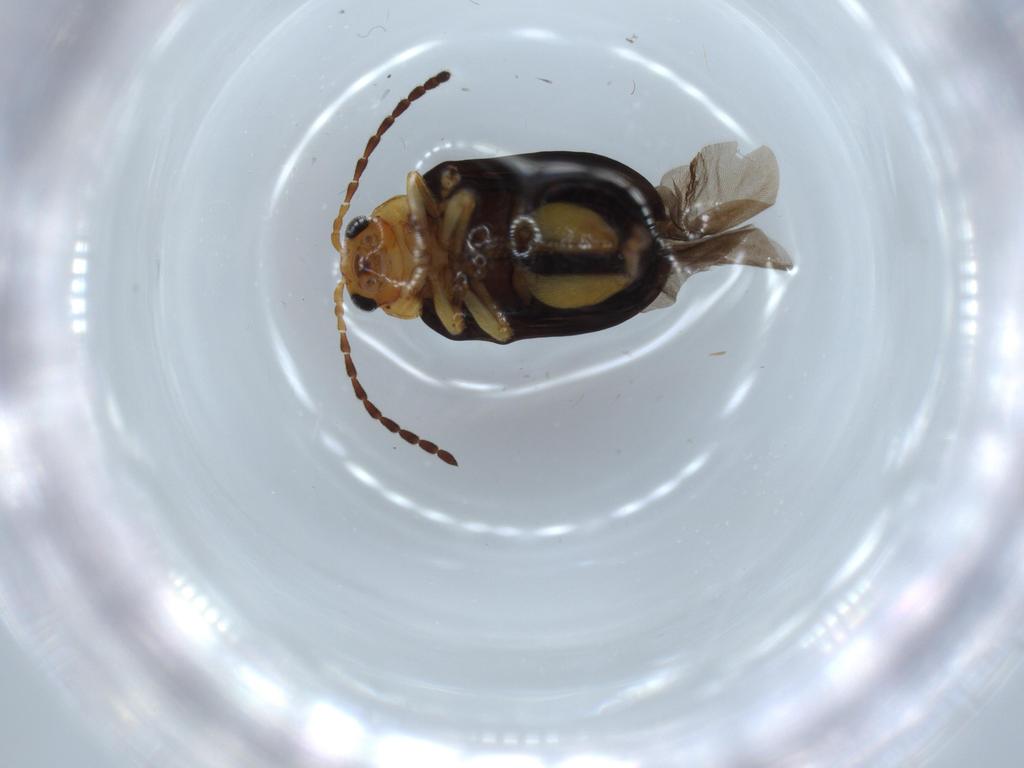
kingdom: Animalia
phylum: Arthropoda
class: Insecta
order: Coleoptera
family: Chrysomelidae
